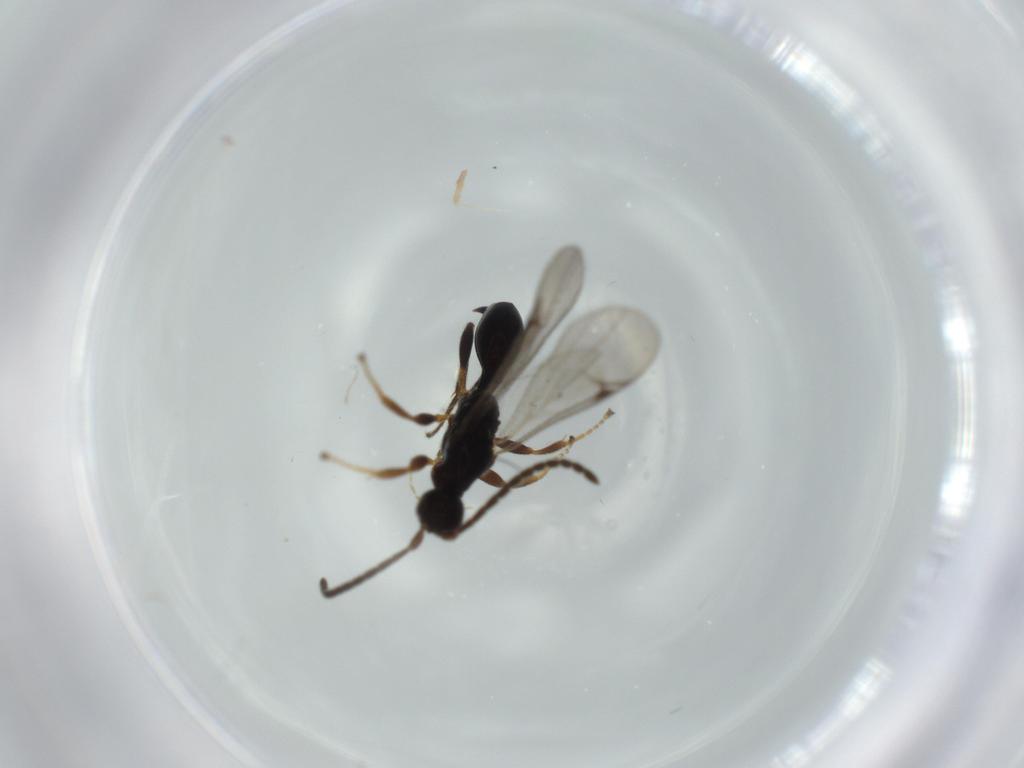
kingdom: Animalia
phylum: Arthropoda
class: Insecta
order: Hymenoptera
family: Proctotrupidae
